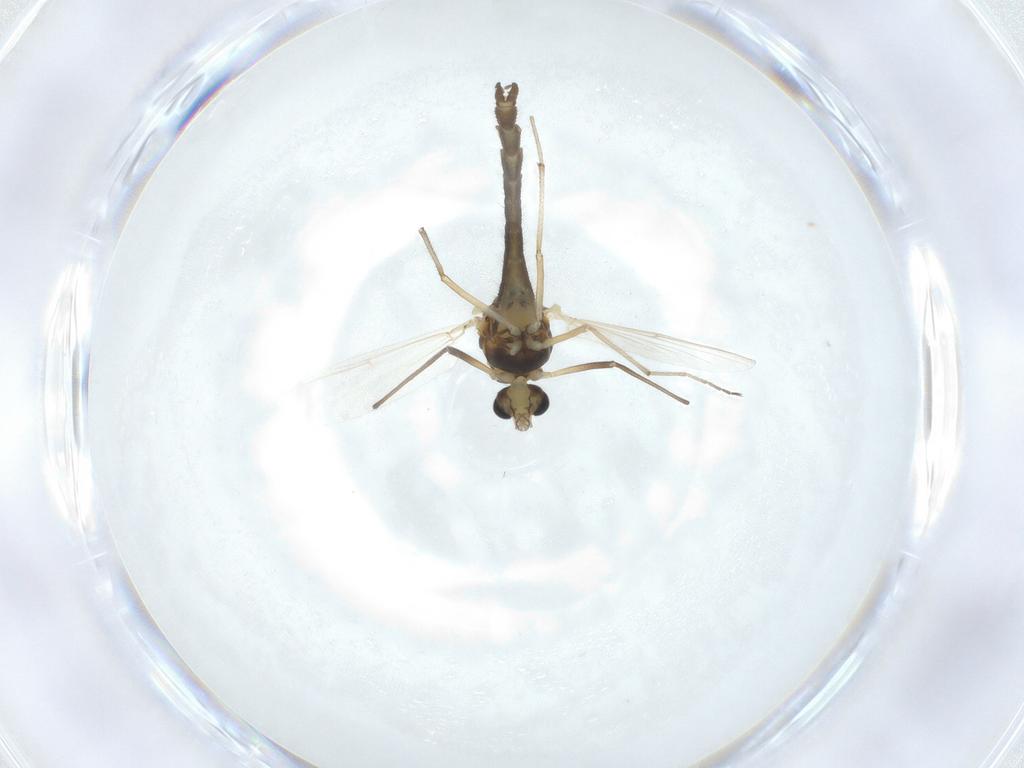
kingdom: Animalia
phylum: Arthropoda
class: Insecta
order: Diptera
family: Chironomidae
